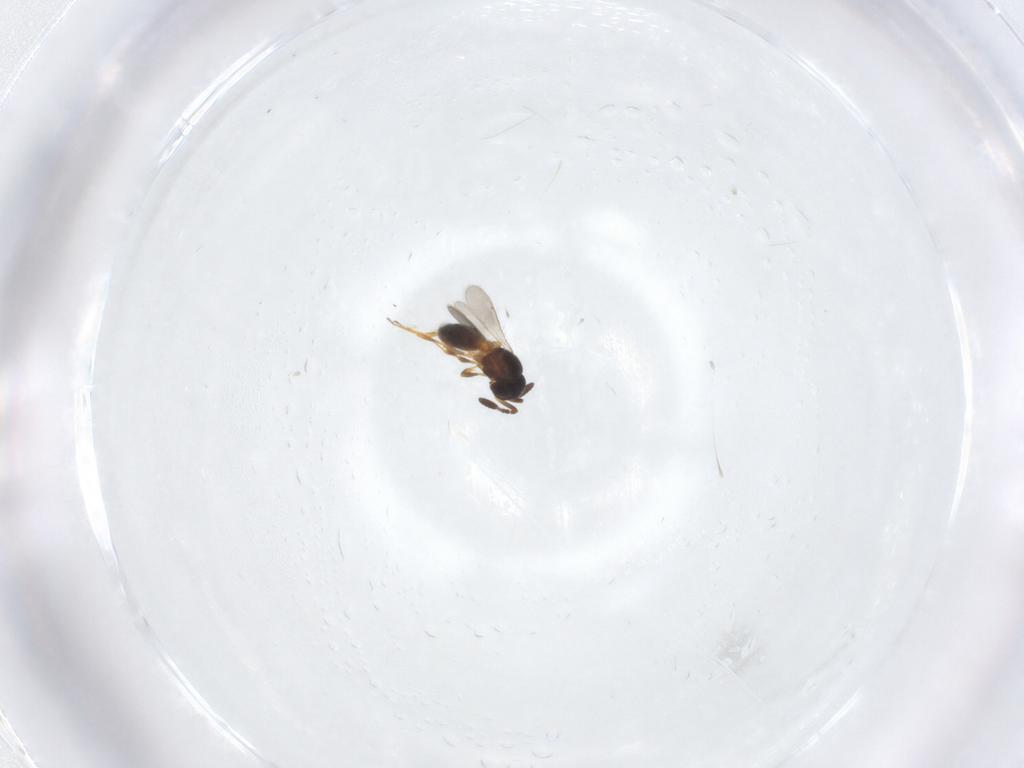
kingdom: Animalia
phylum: Arthropoda
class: Insecta
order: Hymenoptera
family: Scelionidae
